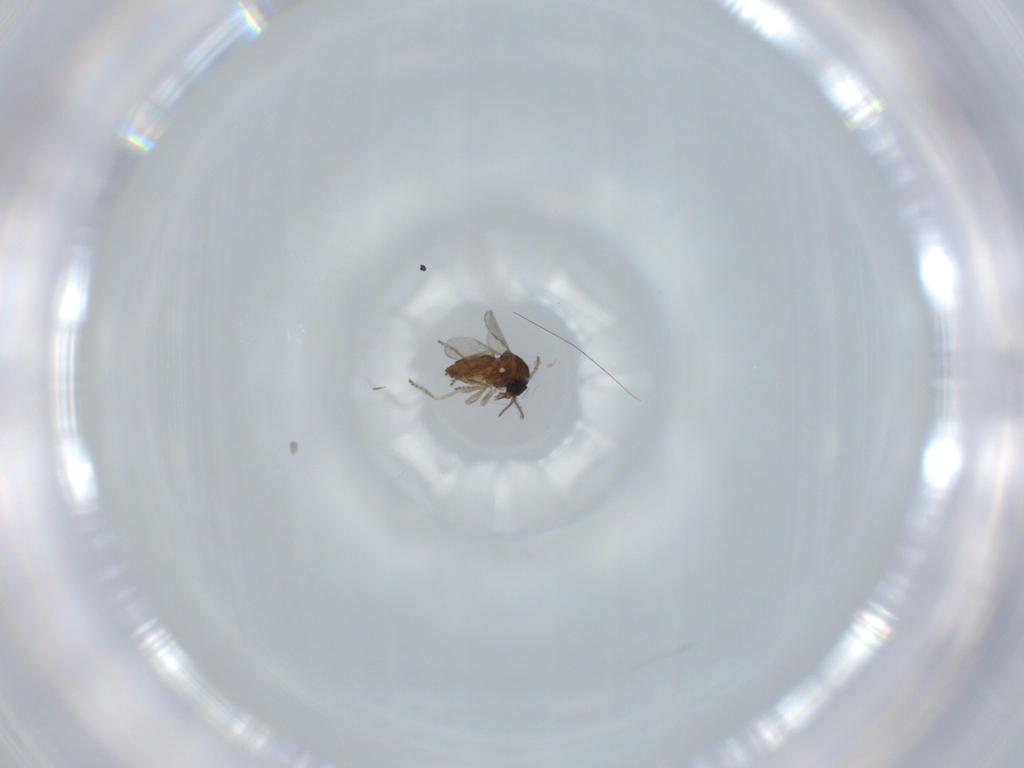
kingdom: Animalia
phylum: Arthropoda
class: Insecta
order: Diptera
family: Ceratopogonidae
